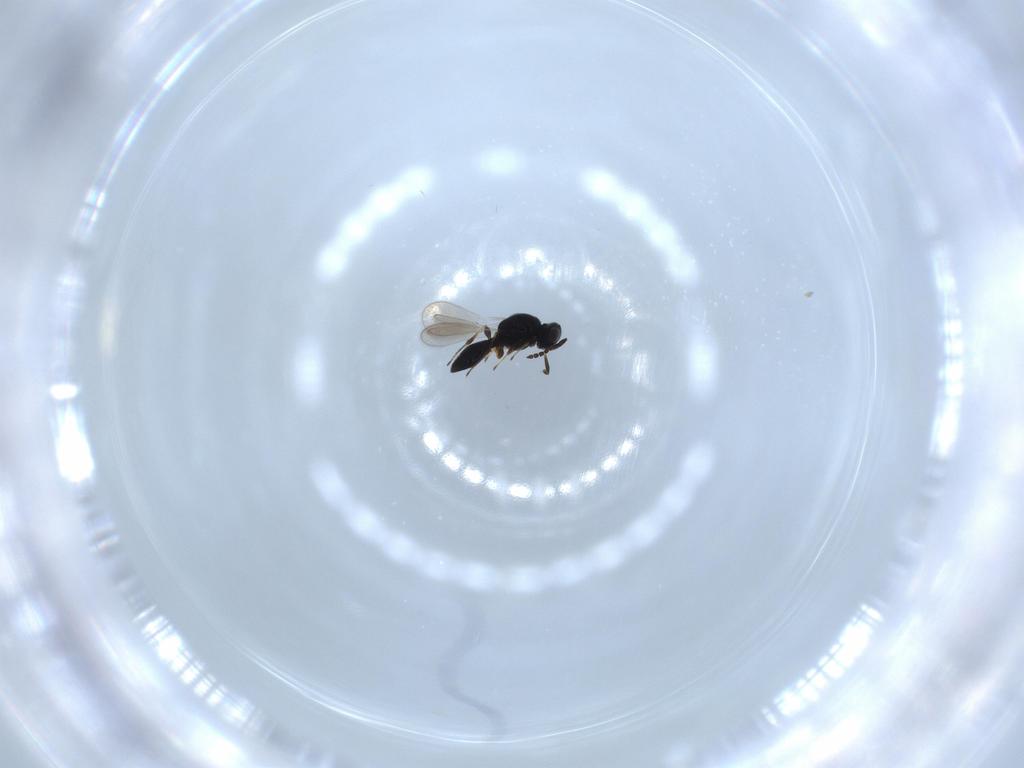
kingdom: Animalia
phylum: Arthropoda
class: Insecta
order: Hymenoptera
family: Platygastridae
